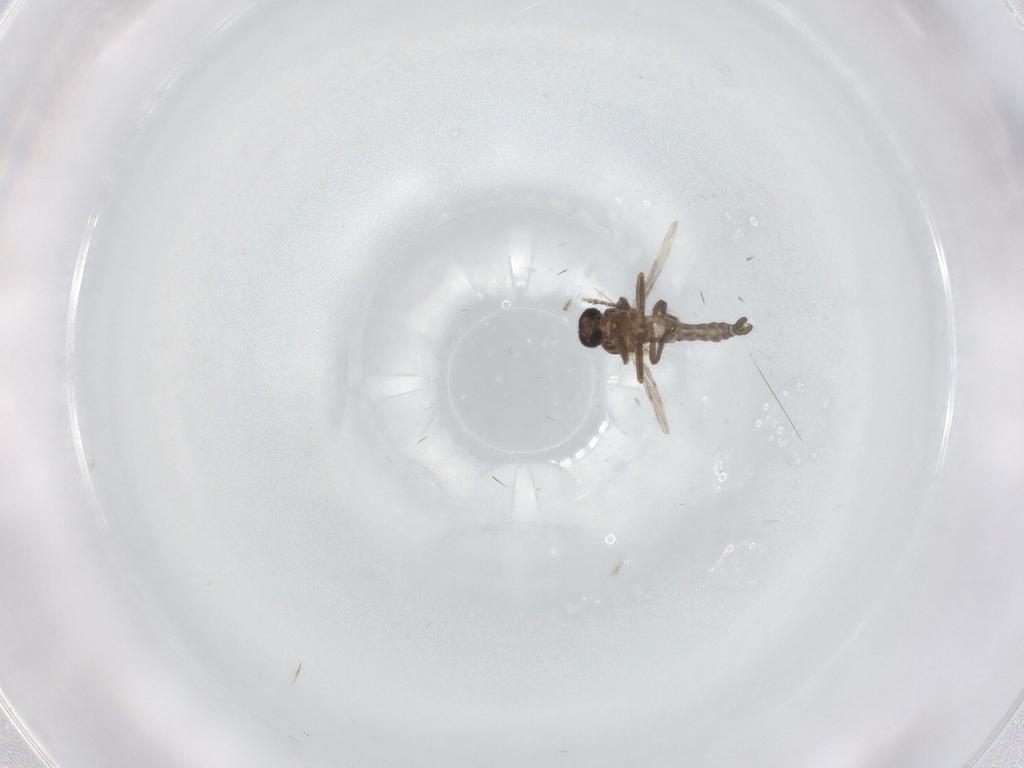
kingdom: Animalia
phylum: Arthropoda
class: Insecta
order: Diptera
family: Ceratopogonidae
